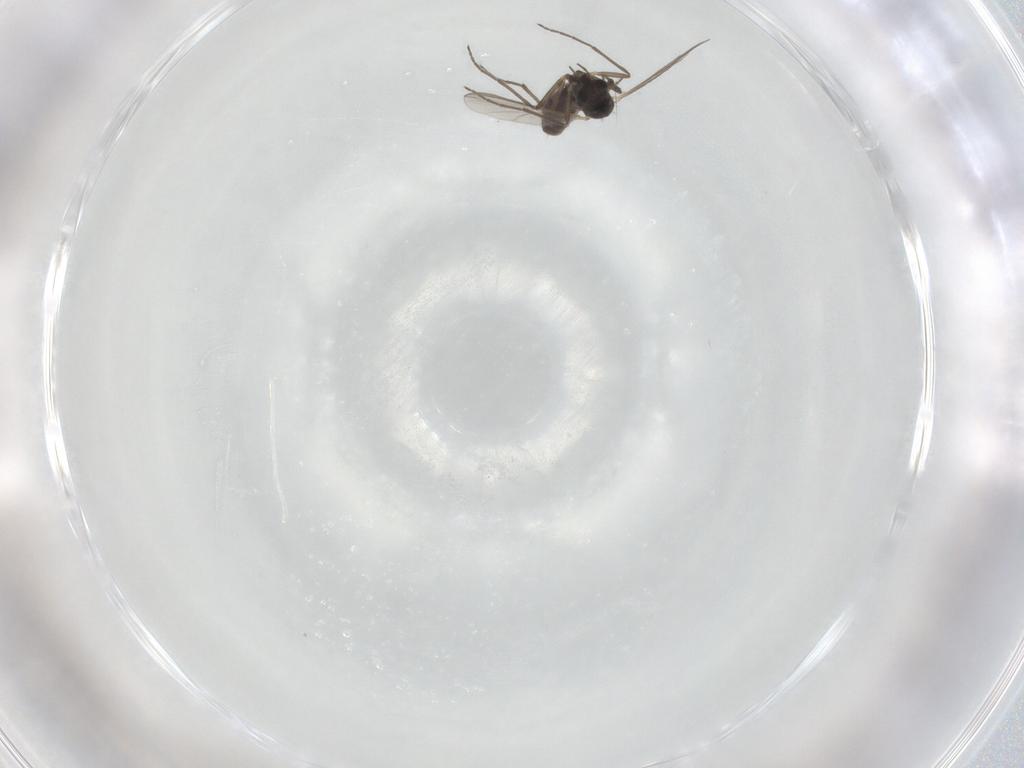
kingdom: Animalia
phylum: Arthropoda
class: Insecta
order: Diptera
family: Chironomidae
